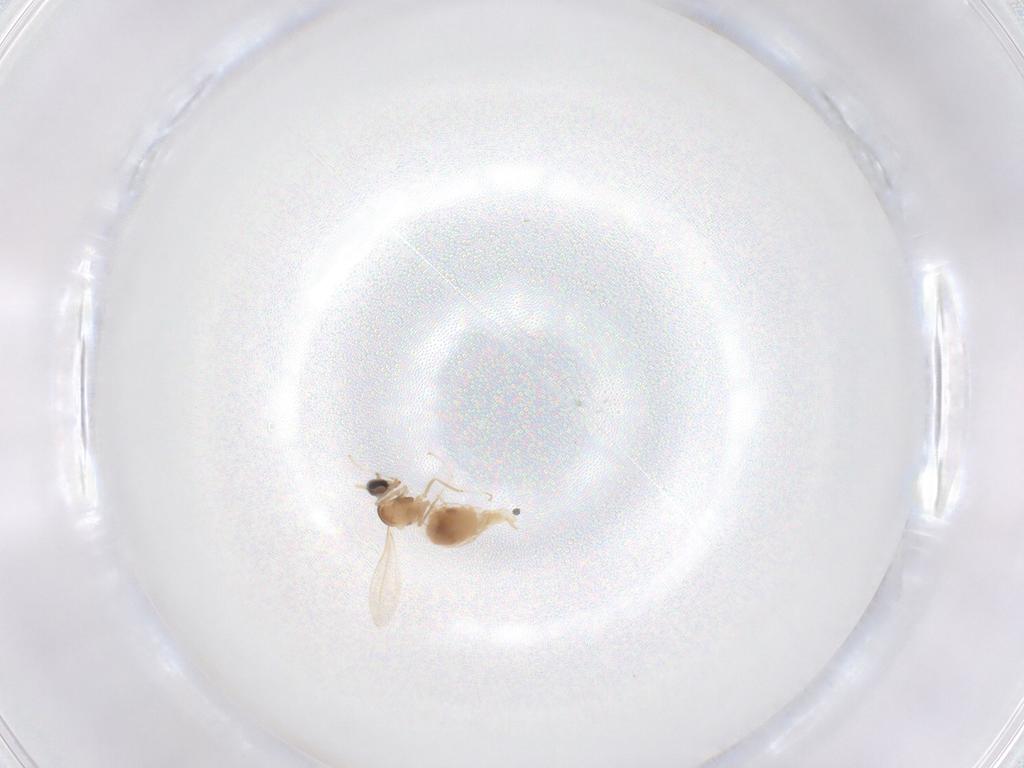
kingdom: Animalia
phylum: Arthropoda
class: Insecta
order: Diptera
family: Cecidomyiidae
